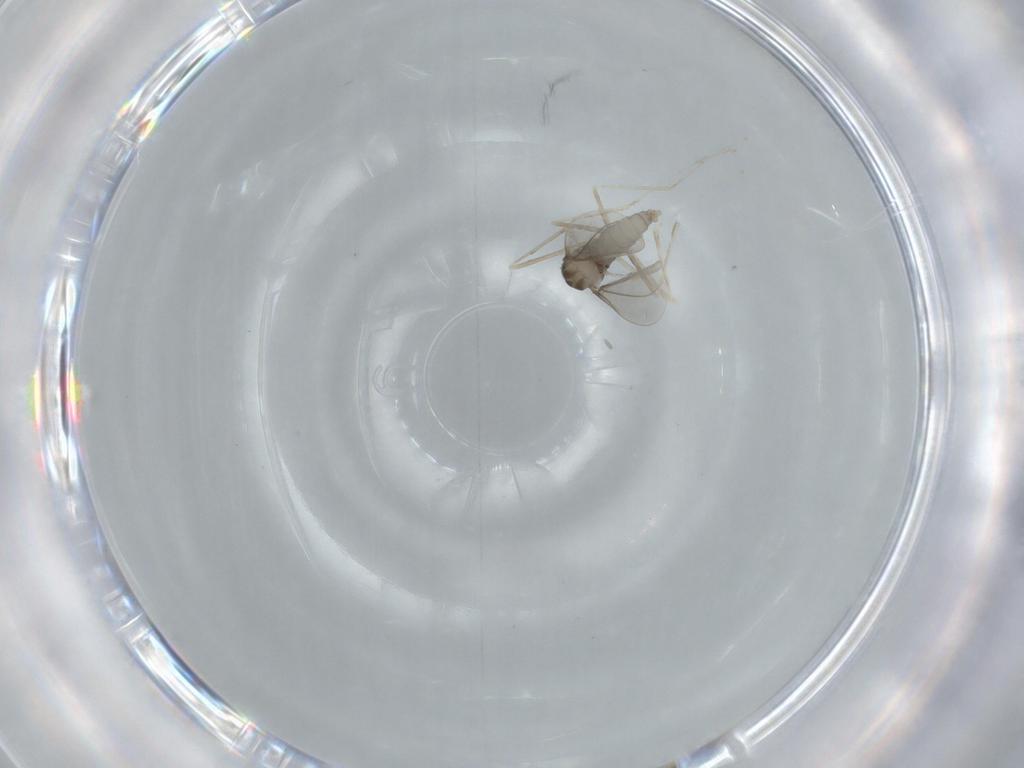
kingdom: Animalia
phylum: Arthropoda
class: Insecta
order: Diptera
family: Cecidomyiidae
